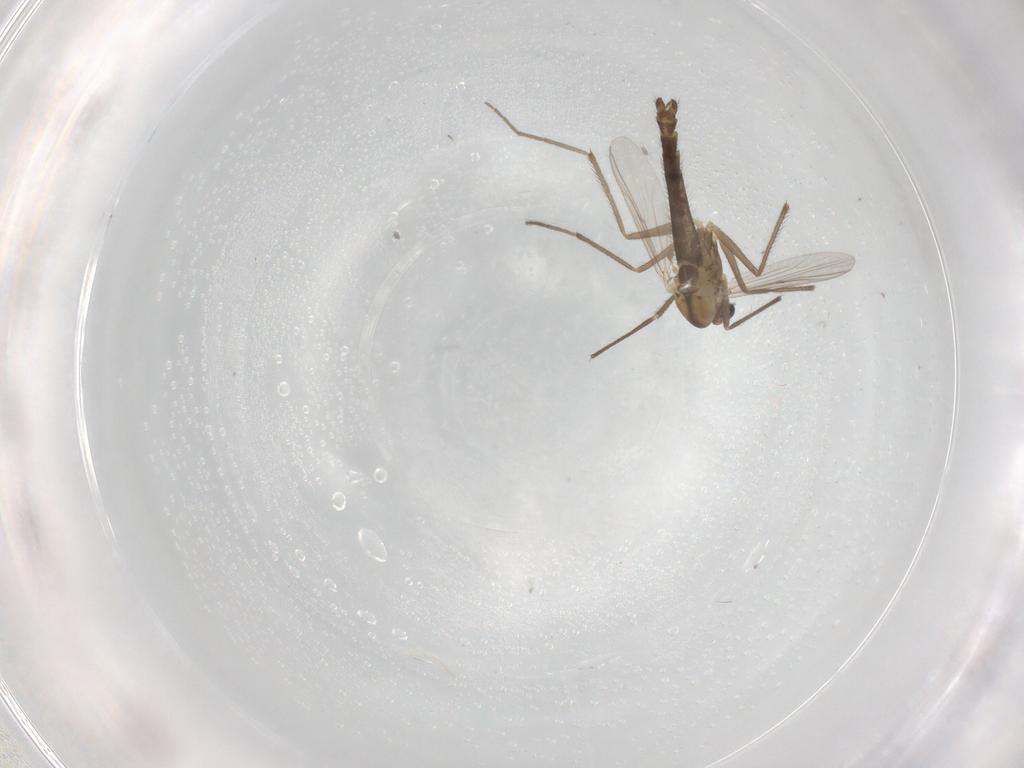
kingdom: Animalia
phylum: Arthropoda
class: Insecta
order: Diptera
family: Chironomidae
